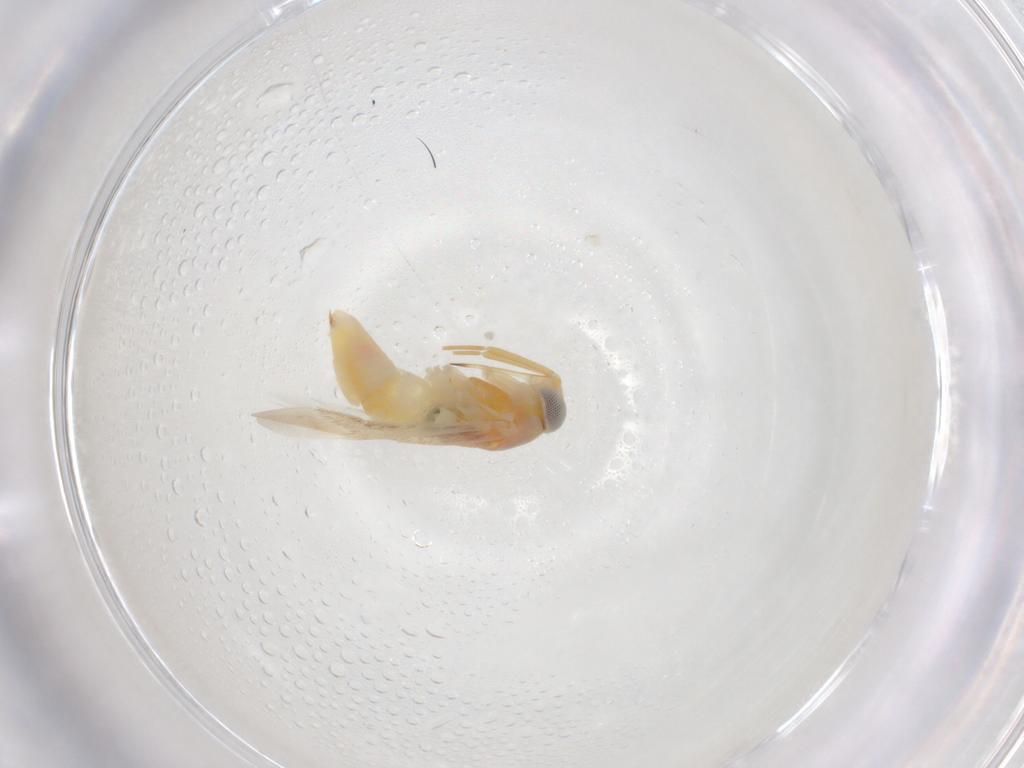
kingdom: Animalia
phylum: Arthropoda
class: Insecta
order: Hemiptera
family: Miridae
